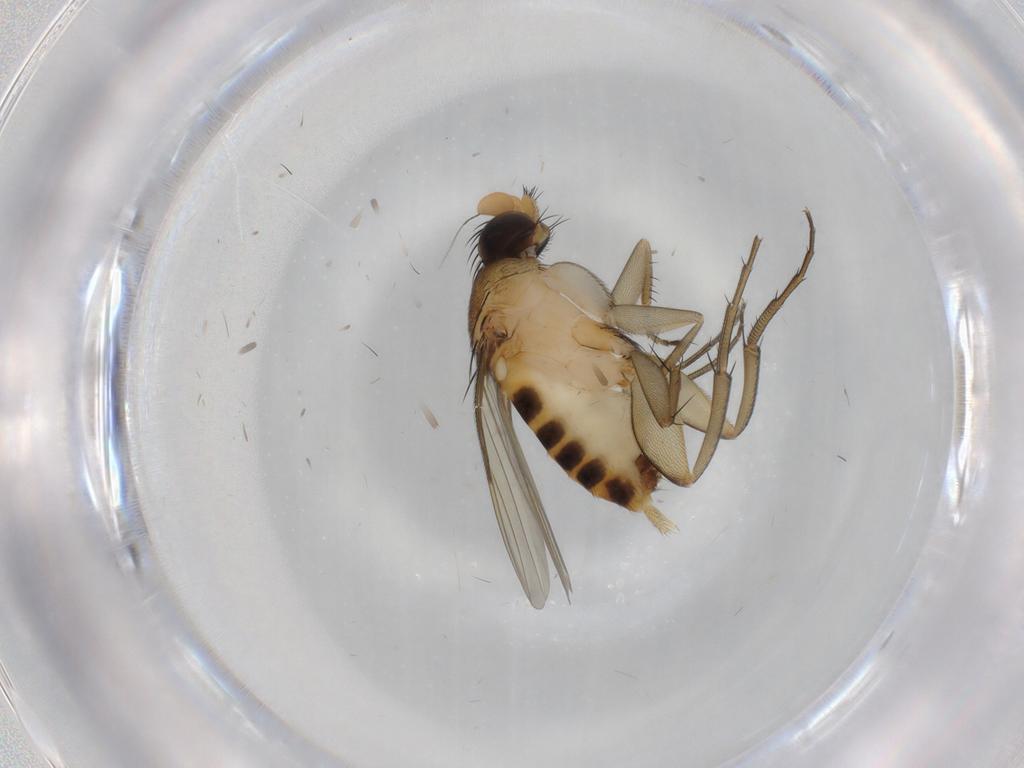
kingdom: Animalia
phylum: Arthropoda
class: Insecta
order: Diptera
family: Phoridae
